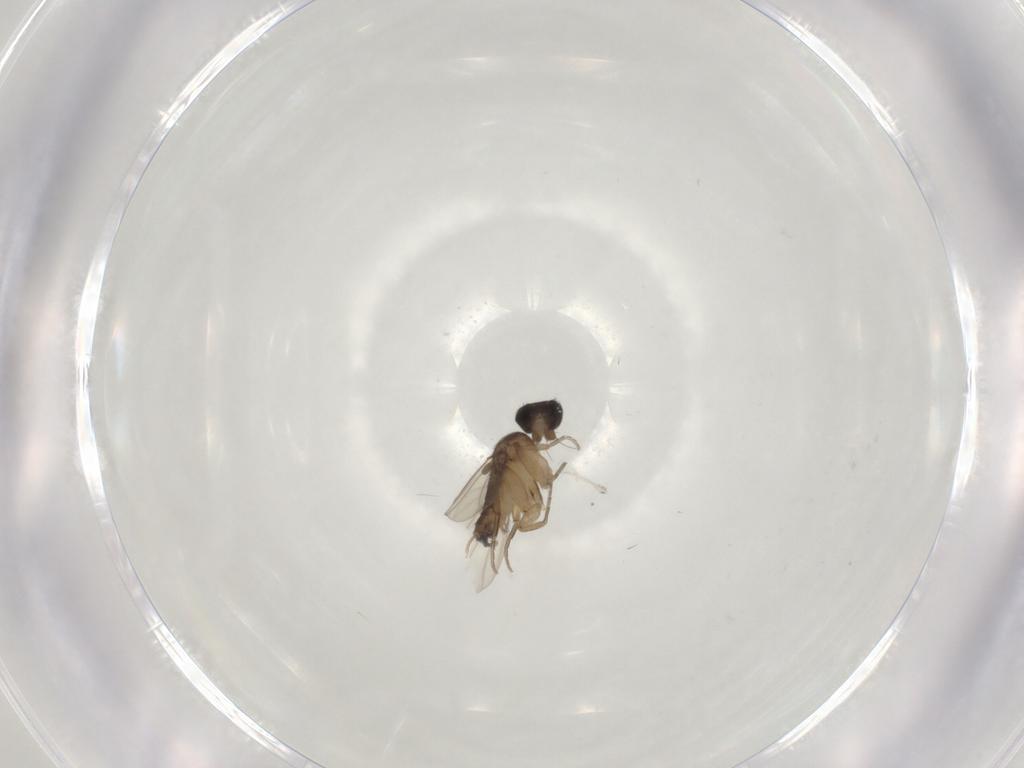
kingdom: Animalia
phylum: Arthropoda
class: Insecta
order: Diptera
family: Phoridae
